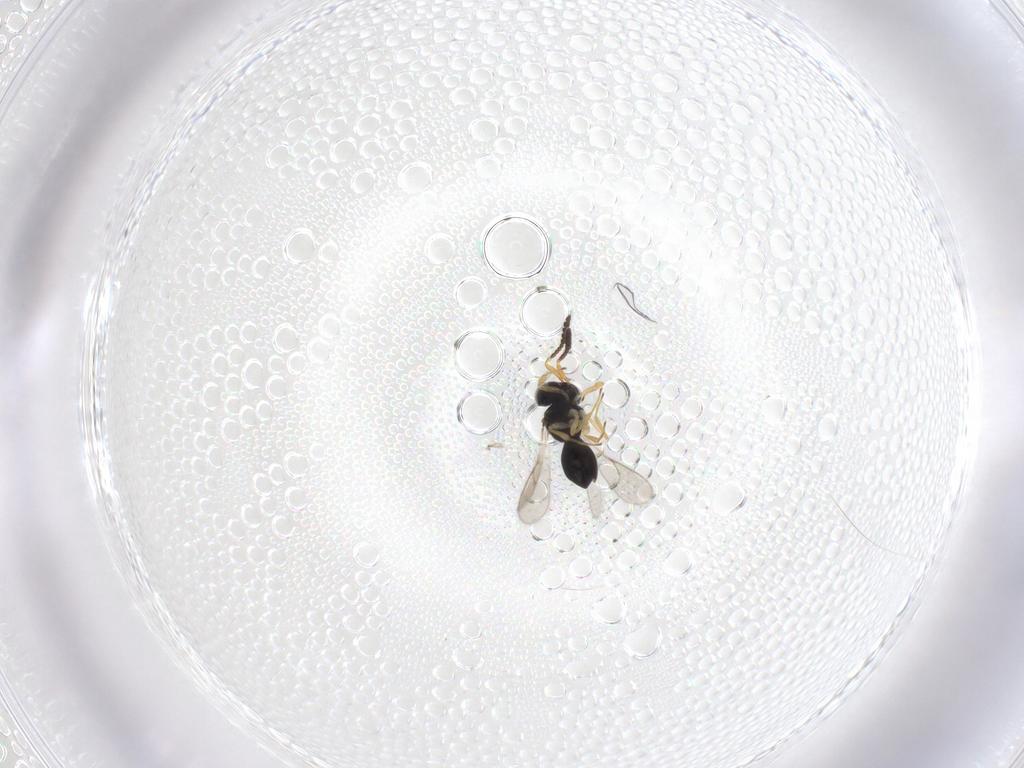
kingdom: Animalia
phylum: Arthropoda
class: Insecta
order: Hymenoptera
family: Scelionidae
